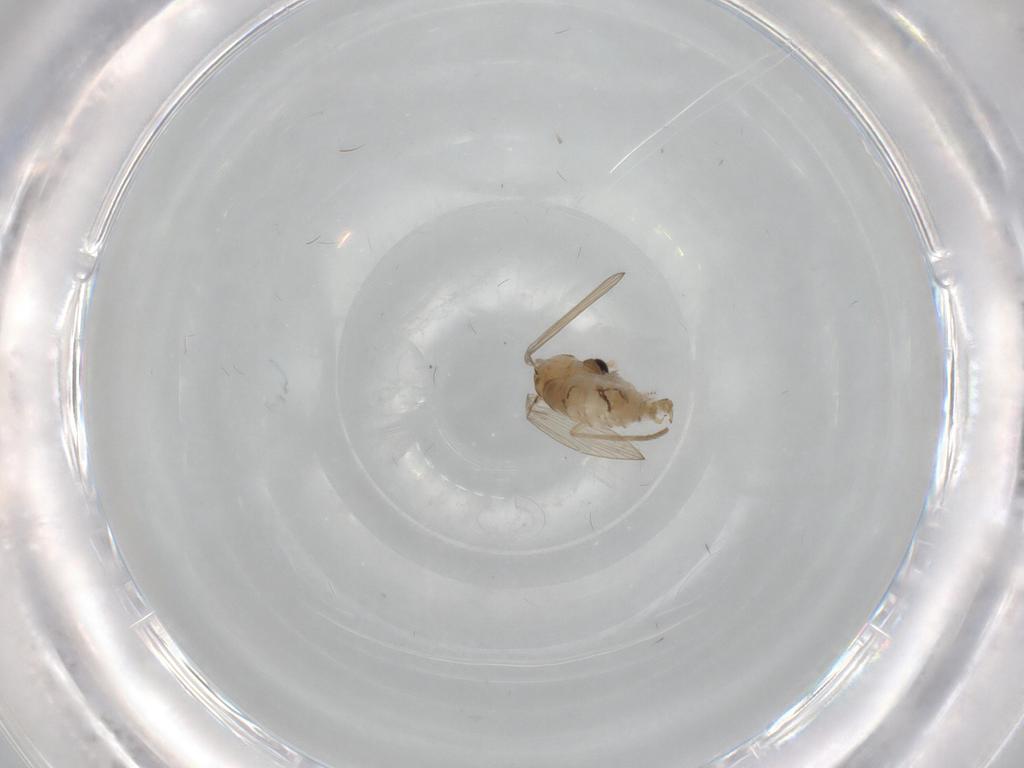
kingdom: Animalia
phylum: Arthropoda
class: Insecta
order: Diptera
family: Psychodidae
